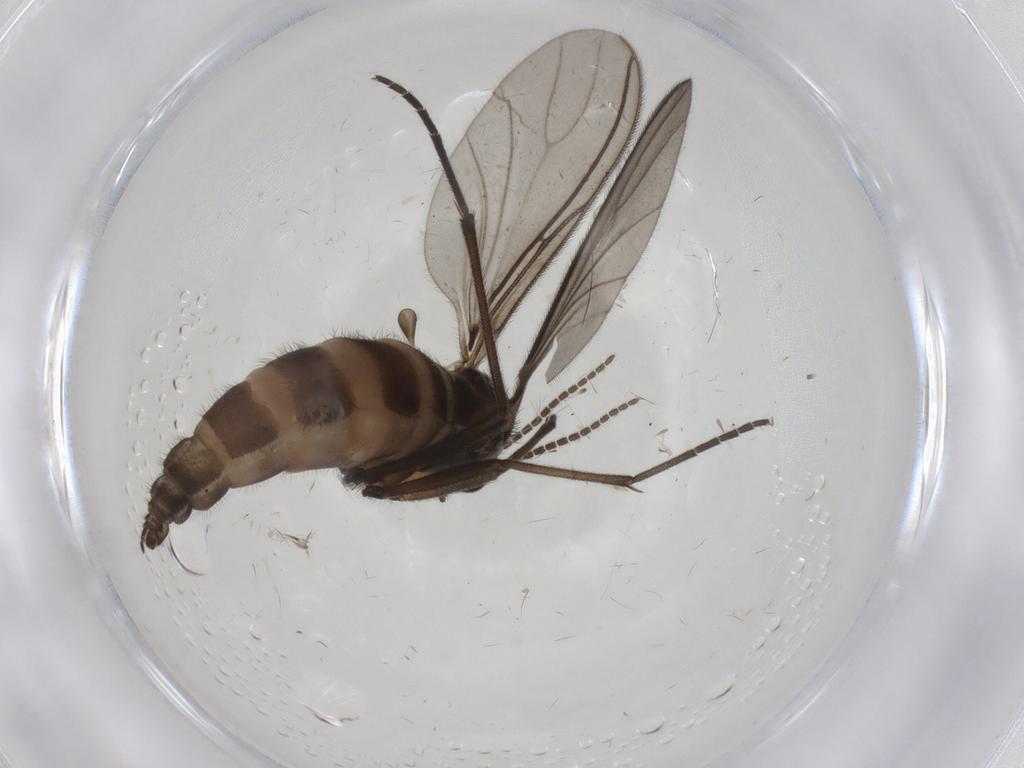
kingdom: Animalia
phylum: Arthropoda
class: Insecta
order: Diptera
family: Sciaridae
